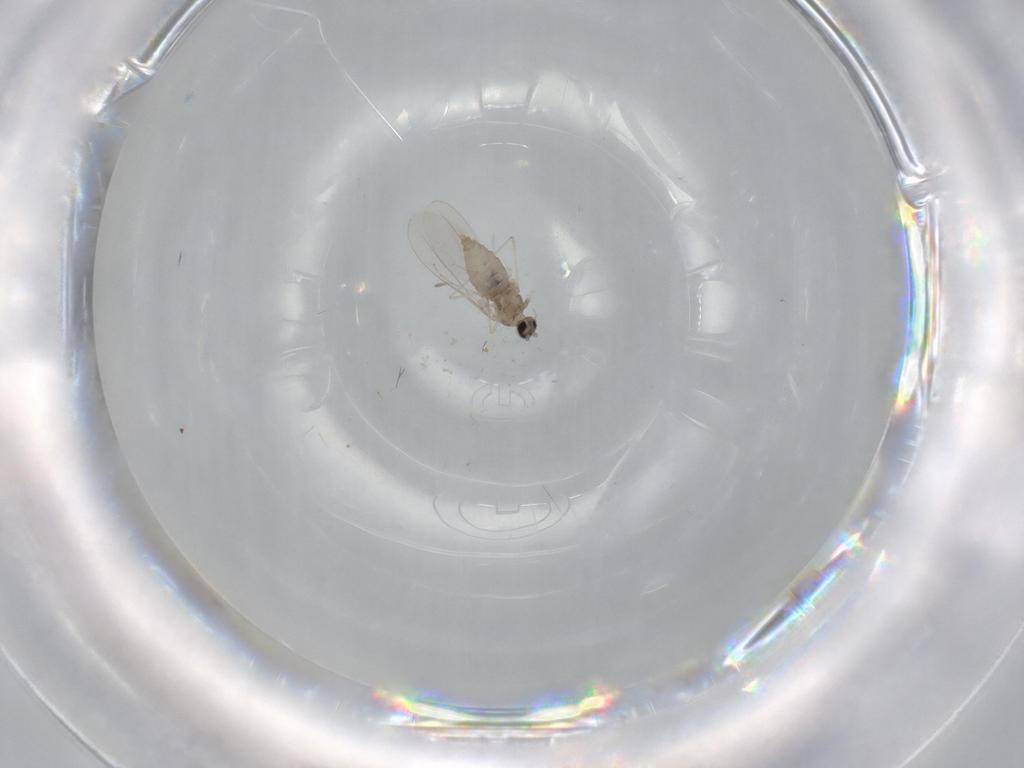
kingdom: Animalia
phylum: Arthropoda
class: Insecta
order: Diptera
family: Cecidomyiidae
